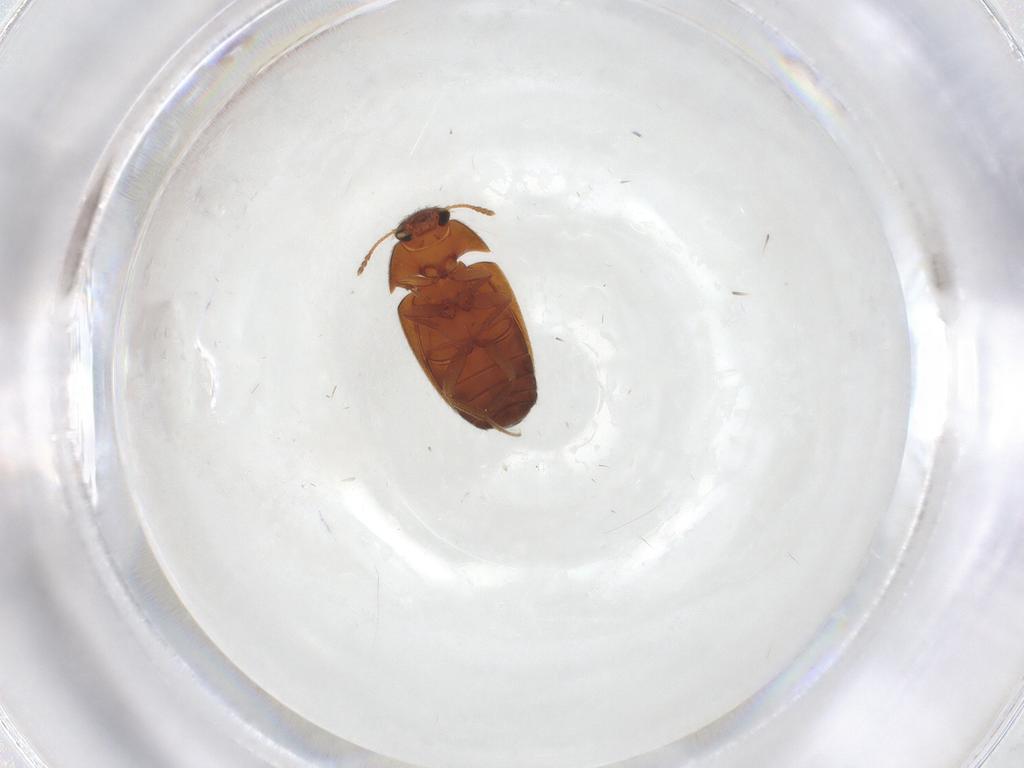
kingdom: Animalia
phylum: Arthropoda
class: Insecta
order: Coleoptera
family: Mycetophagidae
